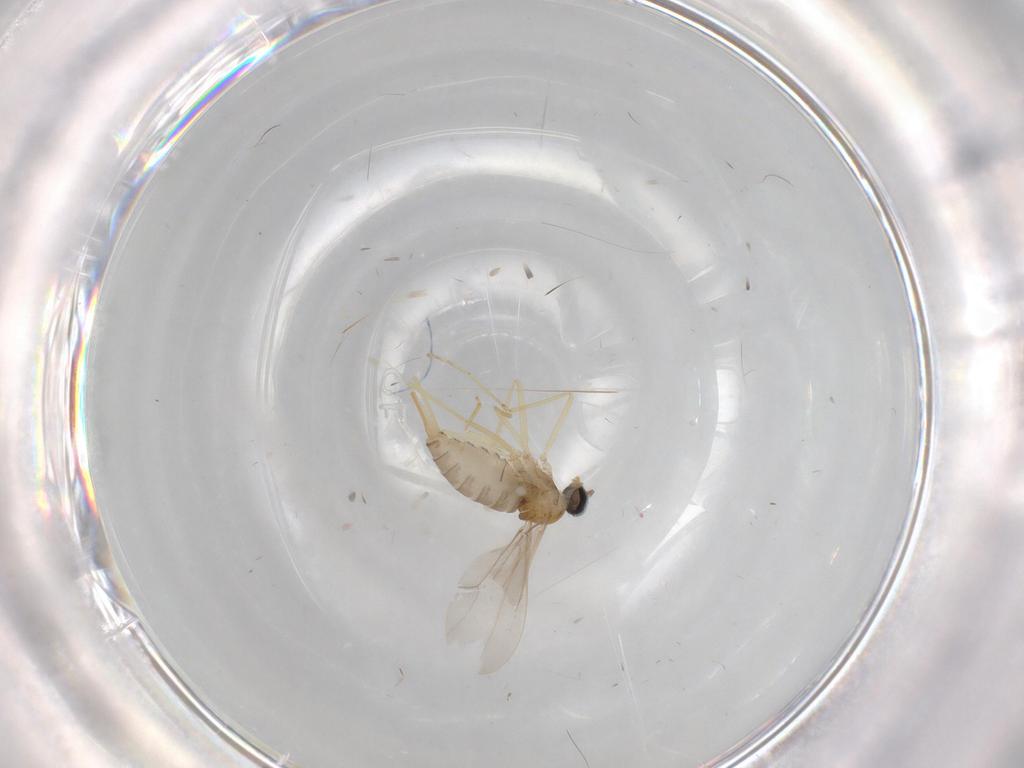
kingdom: Animalia
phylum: Arthropoda
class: Insecta
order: Diptera
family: Cecidomyiidae
